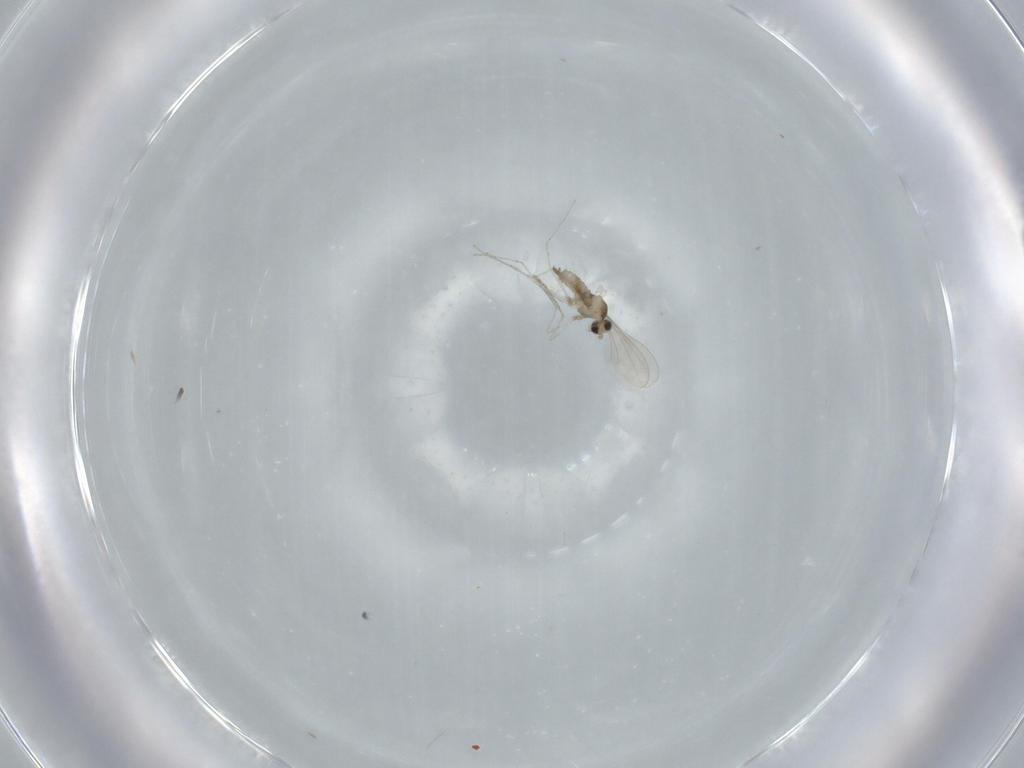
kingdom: Animalia
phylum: Arthropoda
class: Insecta
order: Diptera
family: Cecidomyiidae
